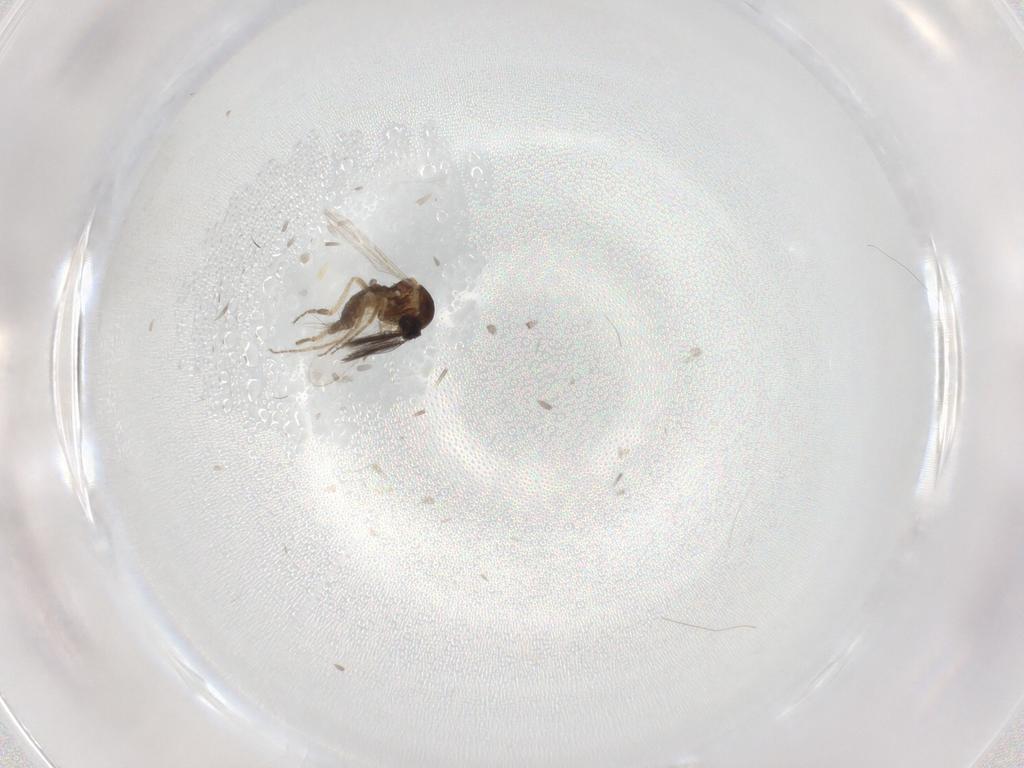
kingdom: Animalia
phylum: Arthropoda
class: Insecta
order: Diptera
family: Ceratopogonidae
